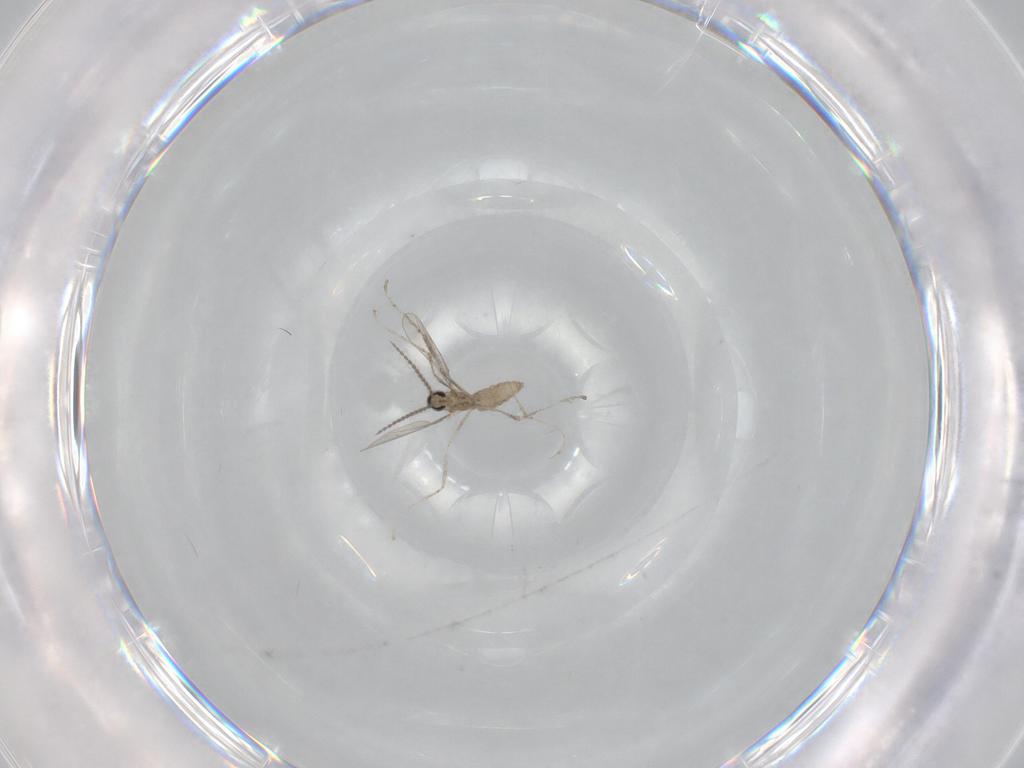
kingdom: Animalia
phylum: Arthropoda
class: Insecta
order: Diptera
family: Cecidomyiidae
